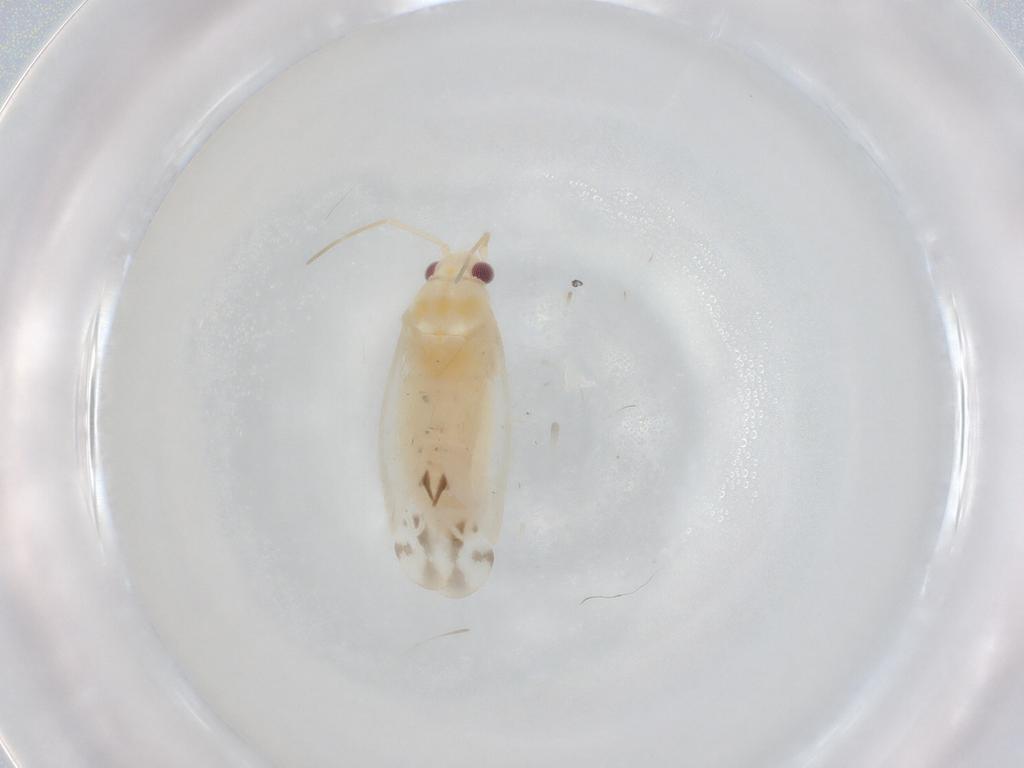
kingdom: Animalia
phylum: Arthropoda
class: Insecta
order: Hemiptera
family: Miridae
